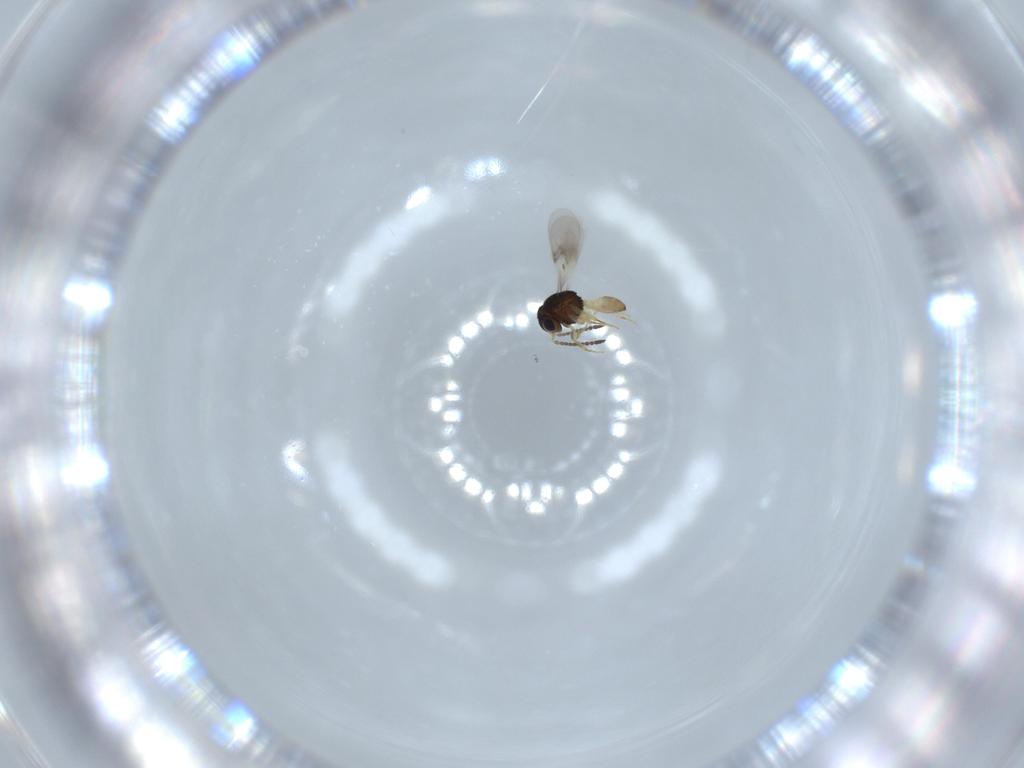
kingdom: Animalia
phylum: Arthropoda
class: Insecta
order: Hymenoptera
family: Scelionidae
